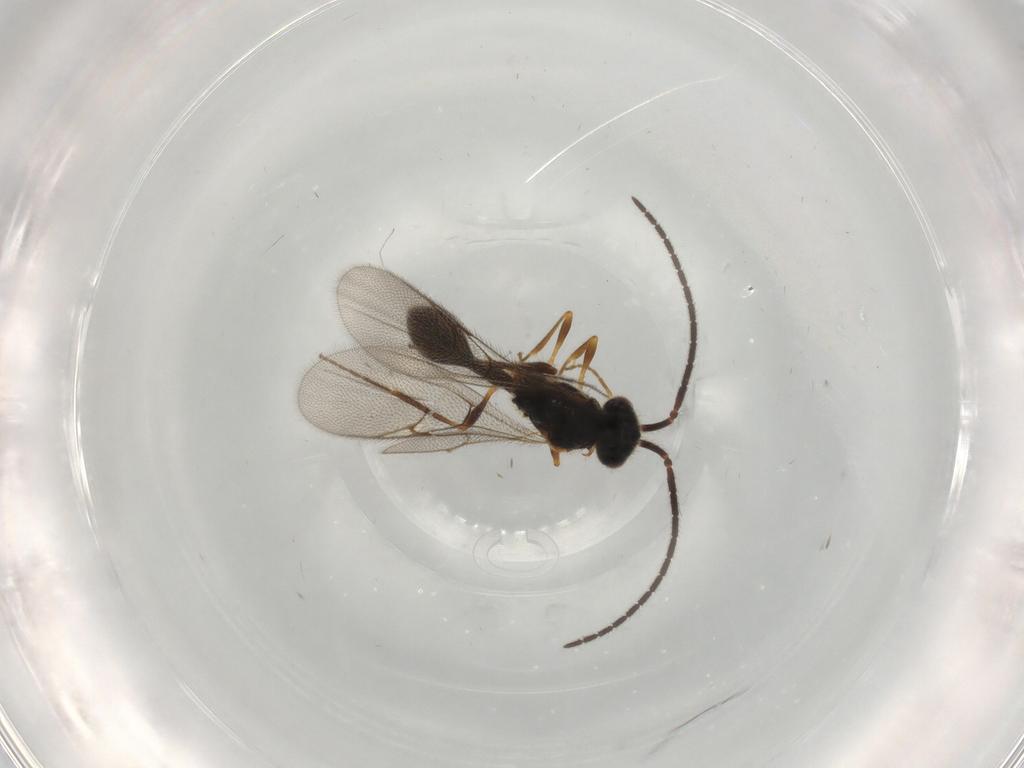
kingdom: Animalia
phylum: Arthropoda
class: Insecta
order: Hymenoptera
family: Diapriidae
